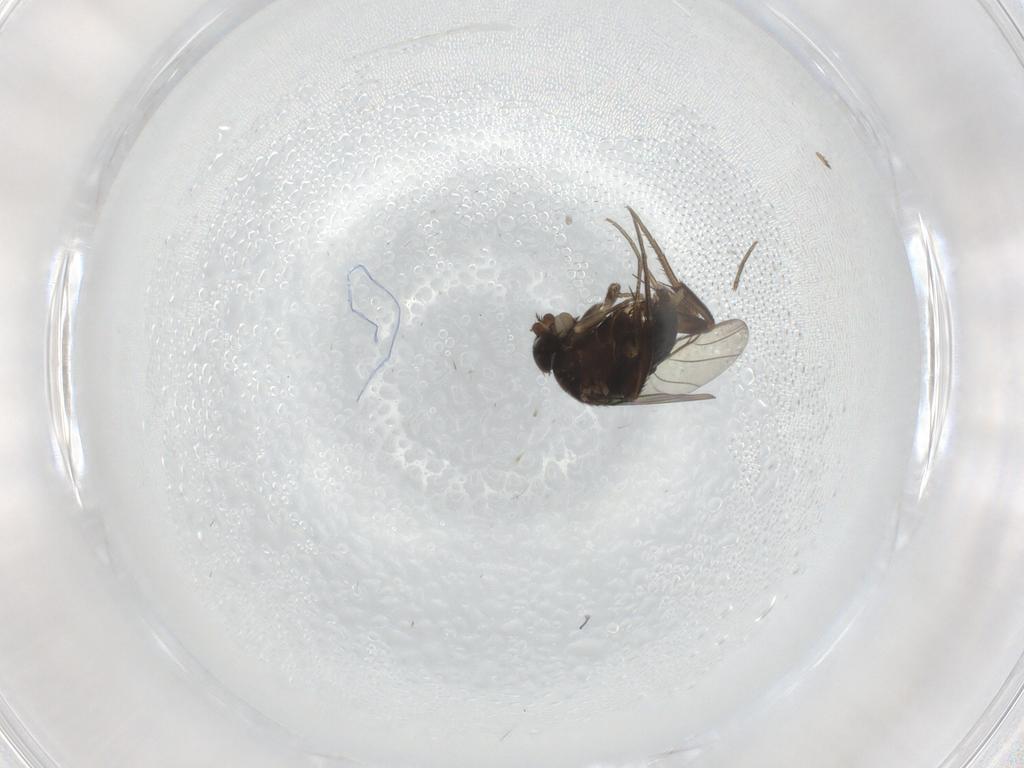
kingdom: Animalia
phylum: Arthropoda
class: Insecta
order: Diptera
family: Phoridae
